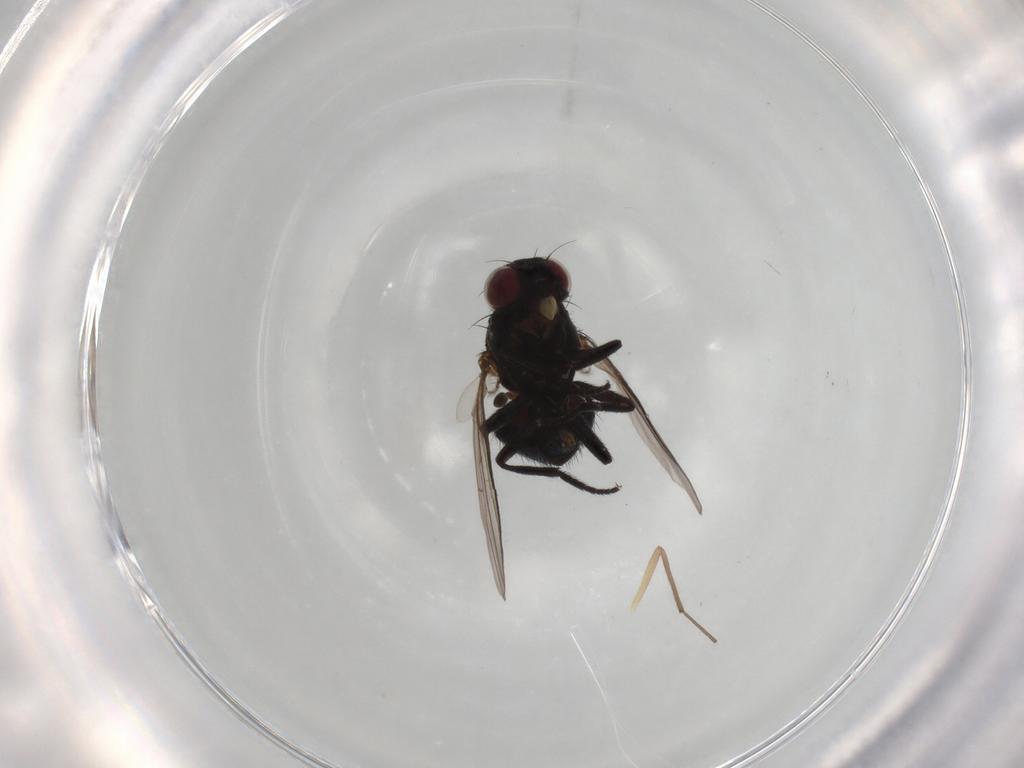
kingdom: Animalia
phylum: Arthropoda
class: Insecta
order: Diptera
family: Agromyzidae
